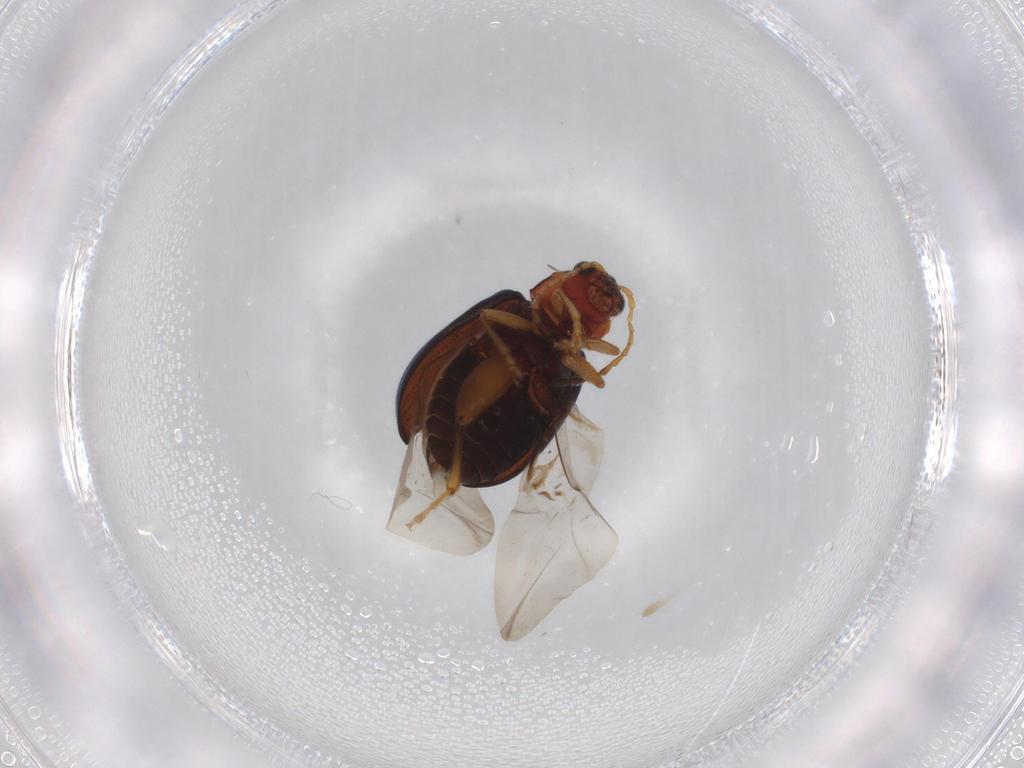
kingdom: Animalia
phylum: Arthropoda
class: Insecta
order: Coleoptera
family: Chrysomelidae
